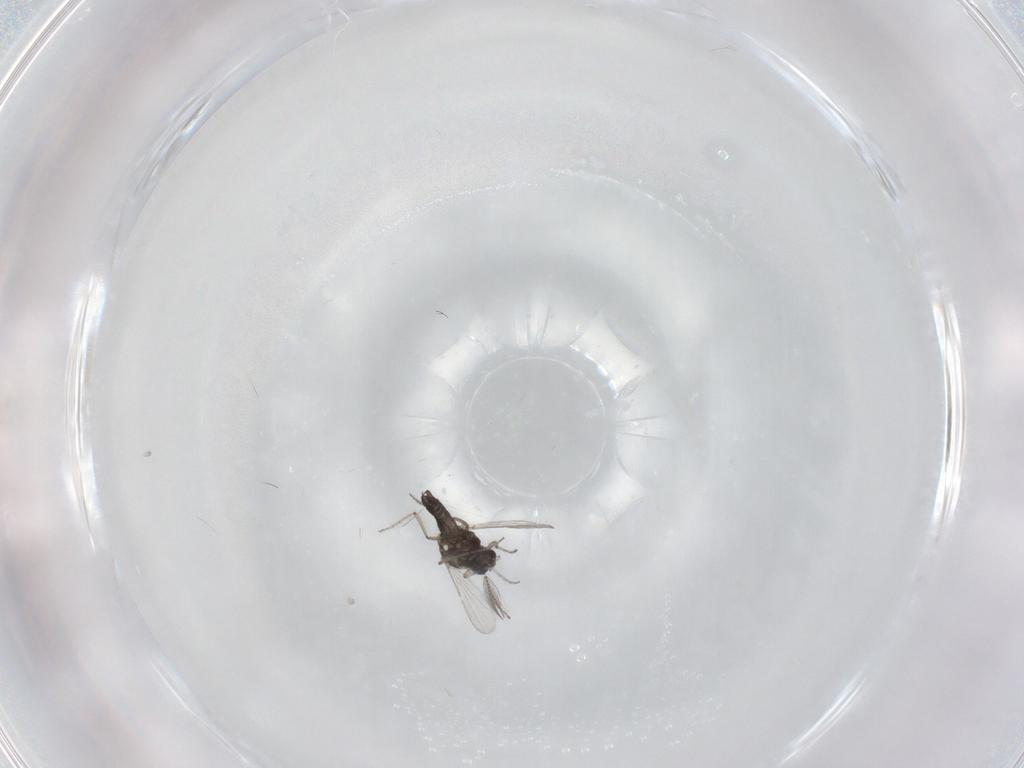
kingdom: Animalia
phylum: Arthropoda
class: Insecta
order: Diptera
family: Ceratopogonidae
